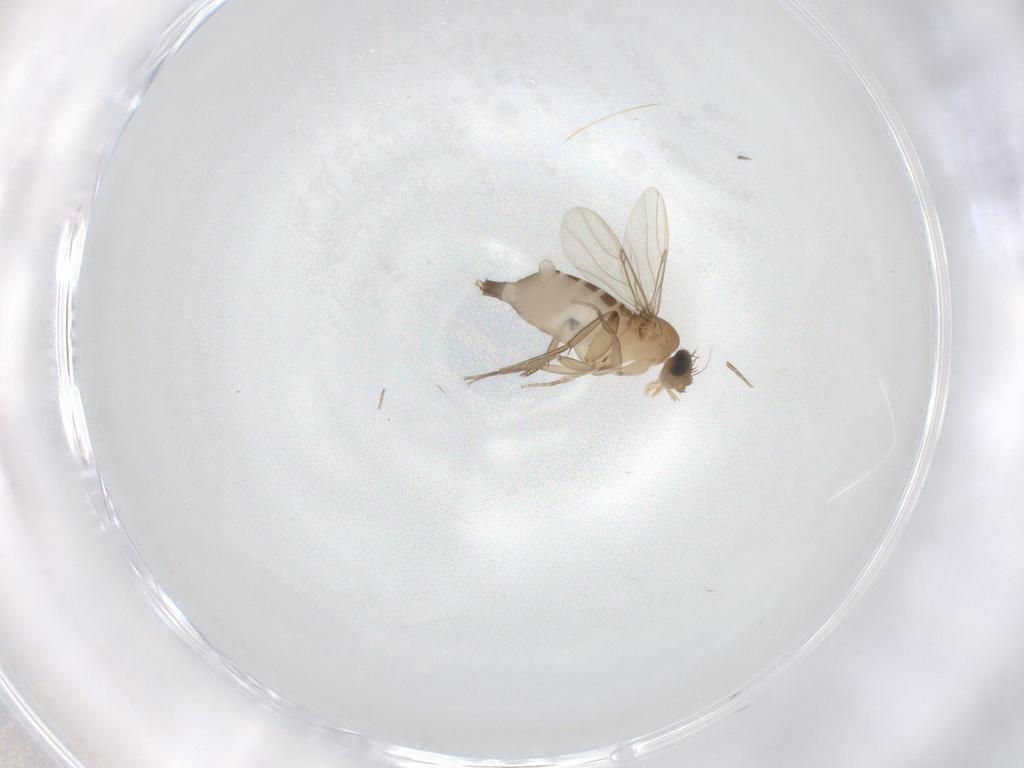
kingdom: Animalia
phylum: Arthropoda
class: Insecta
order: Diptera
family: Phoridae
